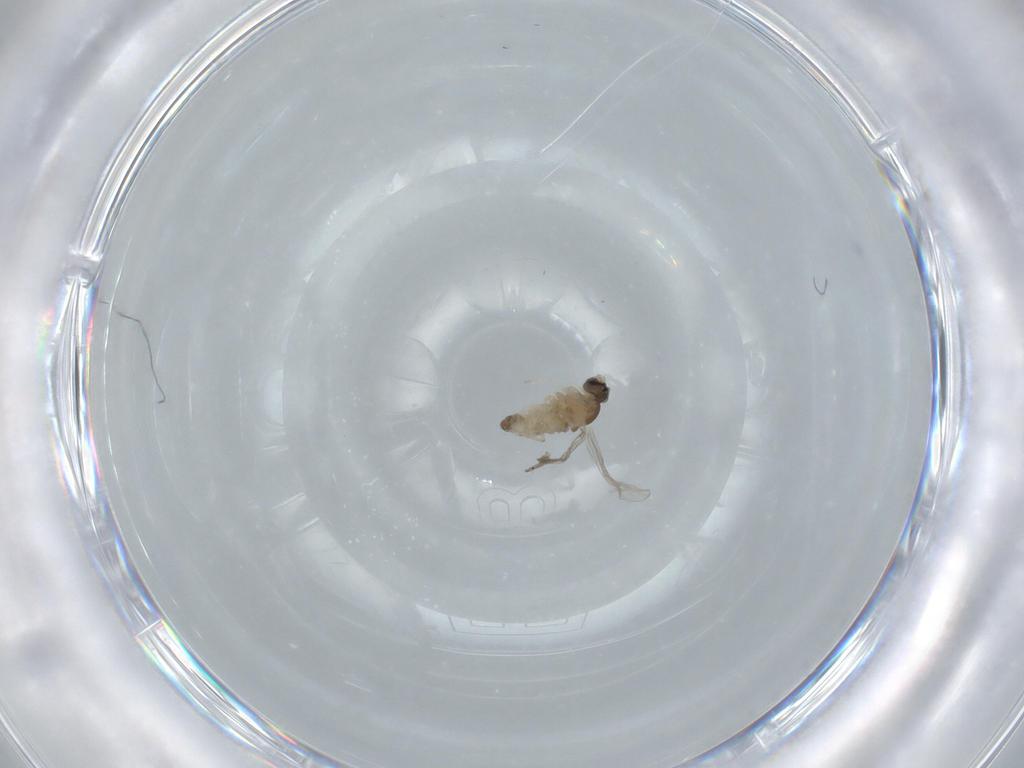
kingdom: Animalia
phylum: Arthropoda
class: Insecta
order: Diptera
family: Cecidomyiidae
